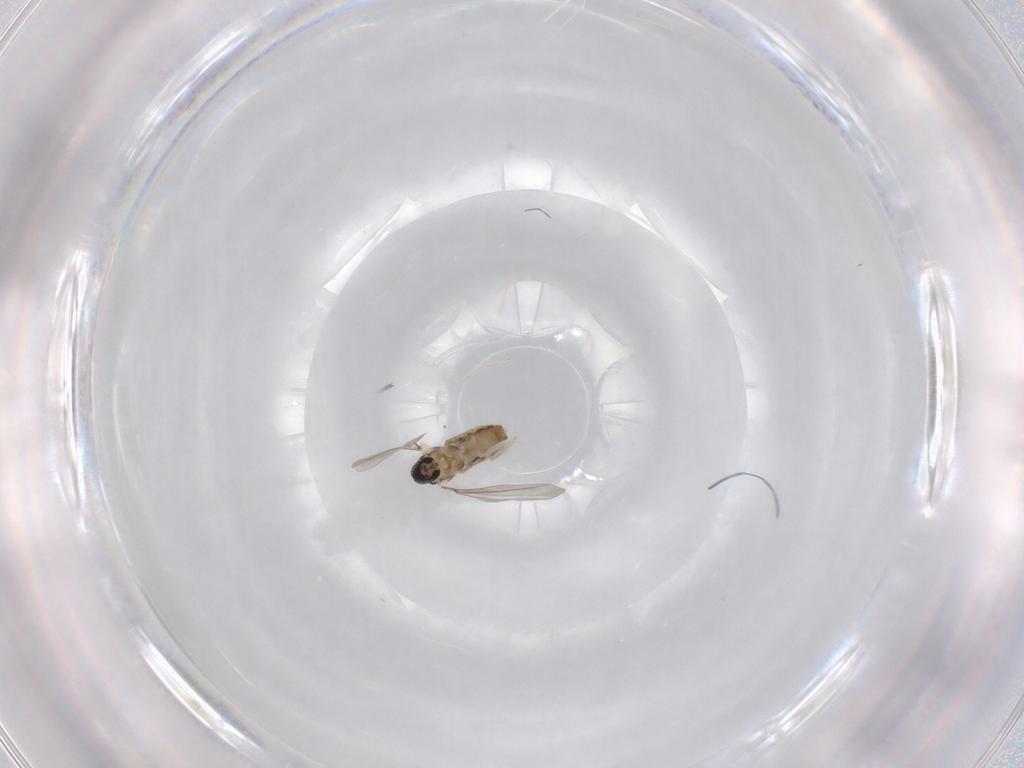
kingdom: Animalia
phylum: Arthropoda
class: Insecta
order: Diptera
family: Cecidomyiidae
